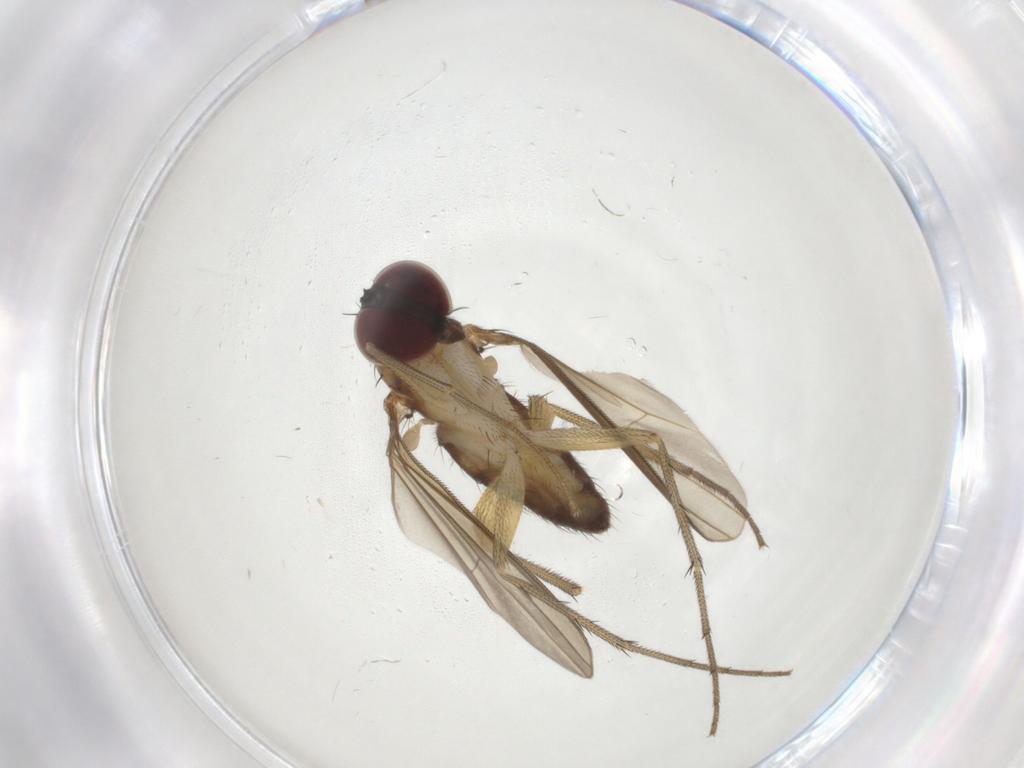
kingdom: Animalia
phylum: Arthropoda
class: Insecta
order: Diptera
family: Dolichopodidae
